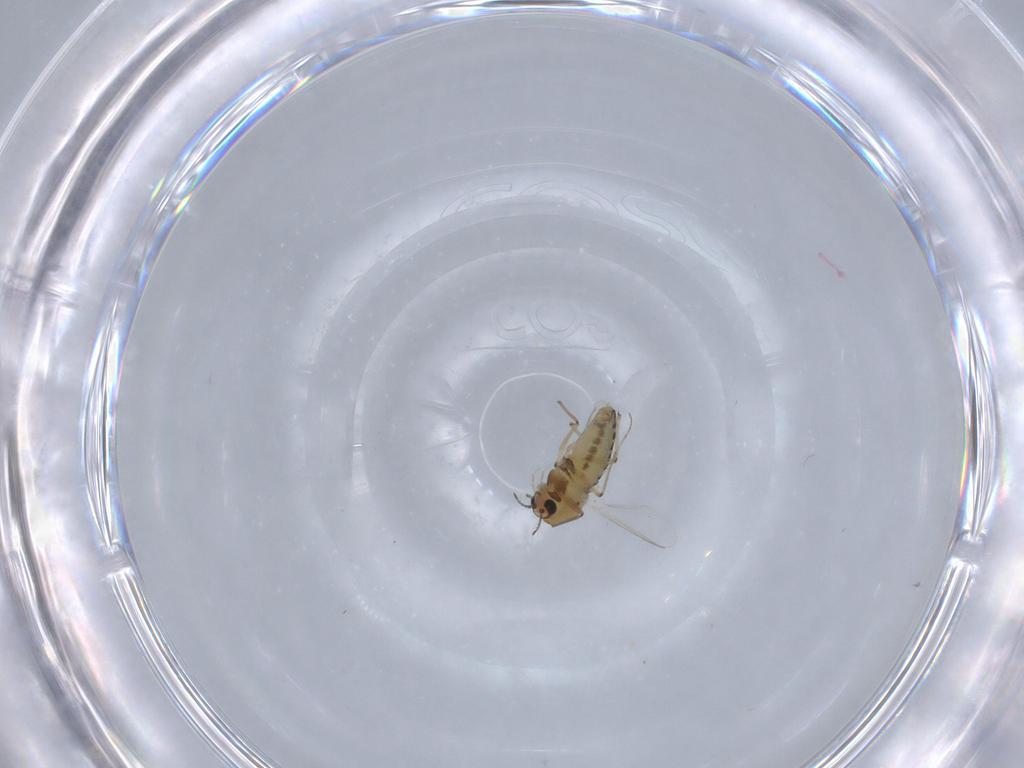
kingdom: Animalia
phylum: Arthropoda
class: Insecta
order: Diptera
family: Chironomidae
